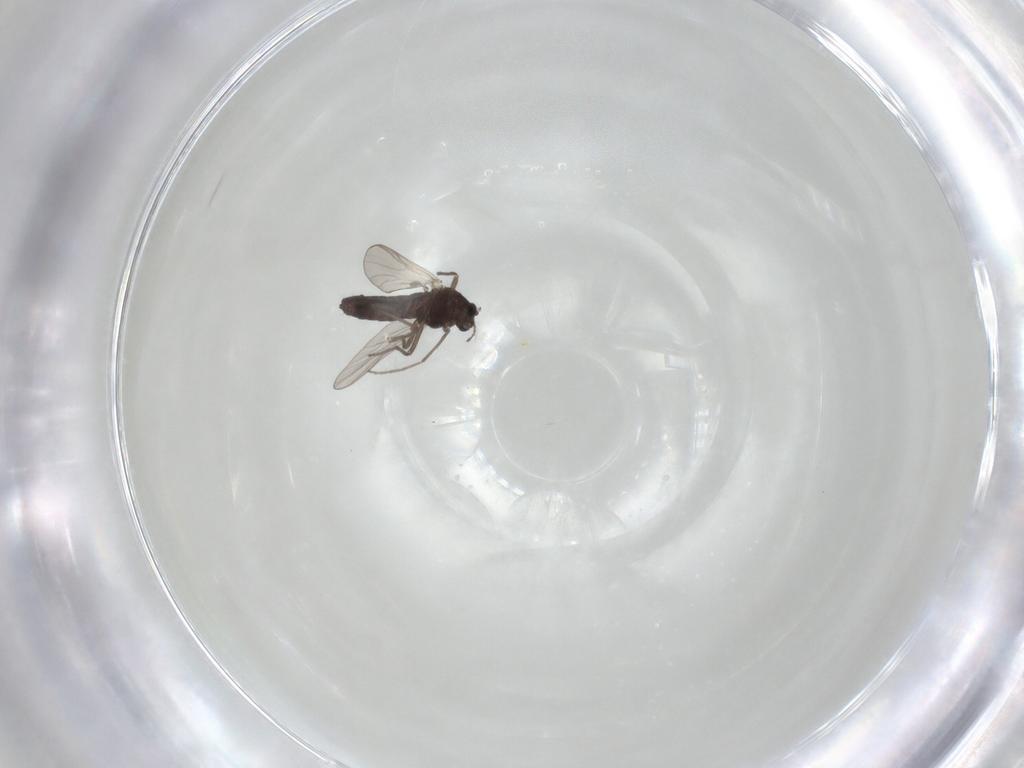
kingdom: Animalia
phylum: Arthropoda
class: Insecta
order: Diptera
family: Chironomidae
